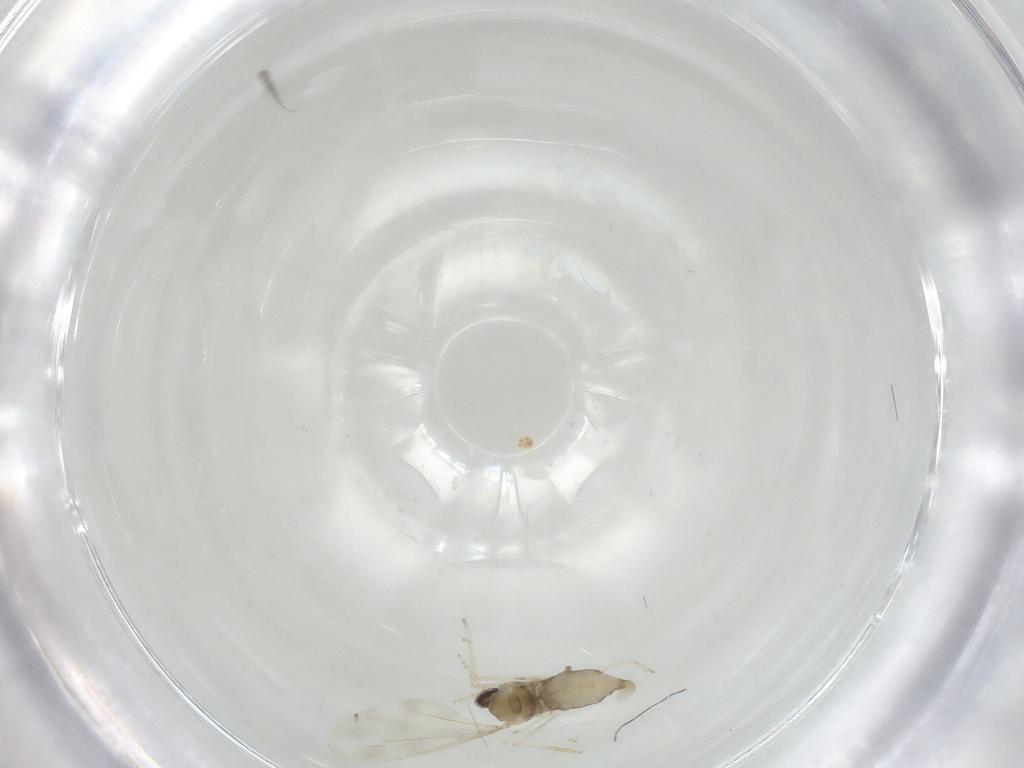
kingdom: Animalia
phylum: Arthropoda
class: Insecta
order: Diptera
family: Cecidomyiidae
